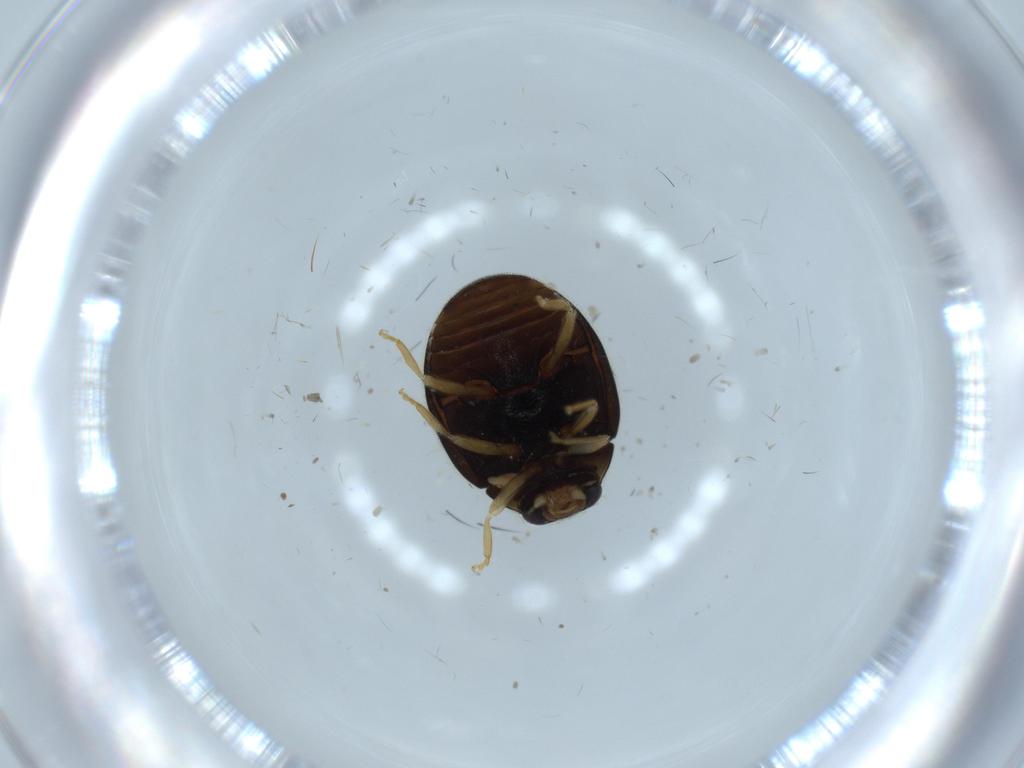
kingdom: Animalia
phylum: Arthropoda
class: Insecta
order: Coleoptera
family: Coccinellidae
